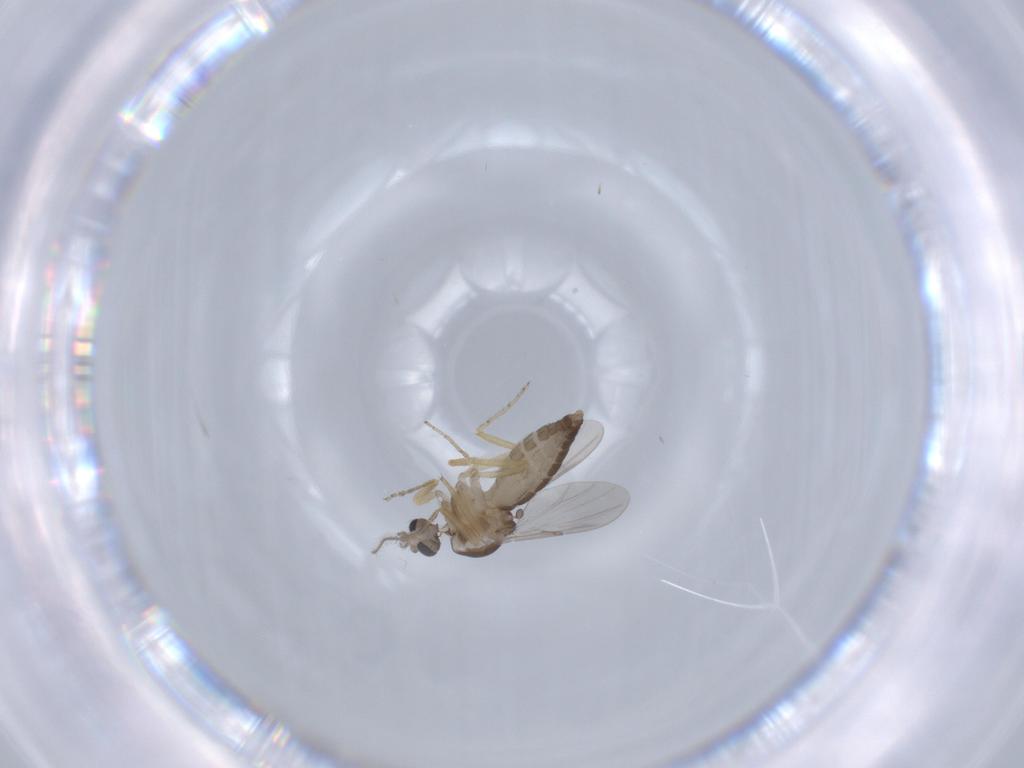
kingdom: Animalia
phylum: Arthropoda
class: Insecta
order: Diptera
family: Ceratopogonidae
